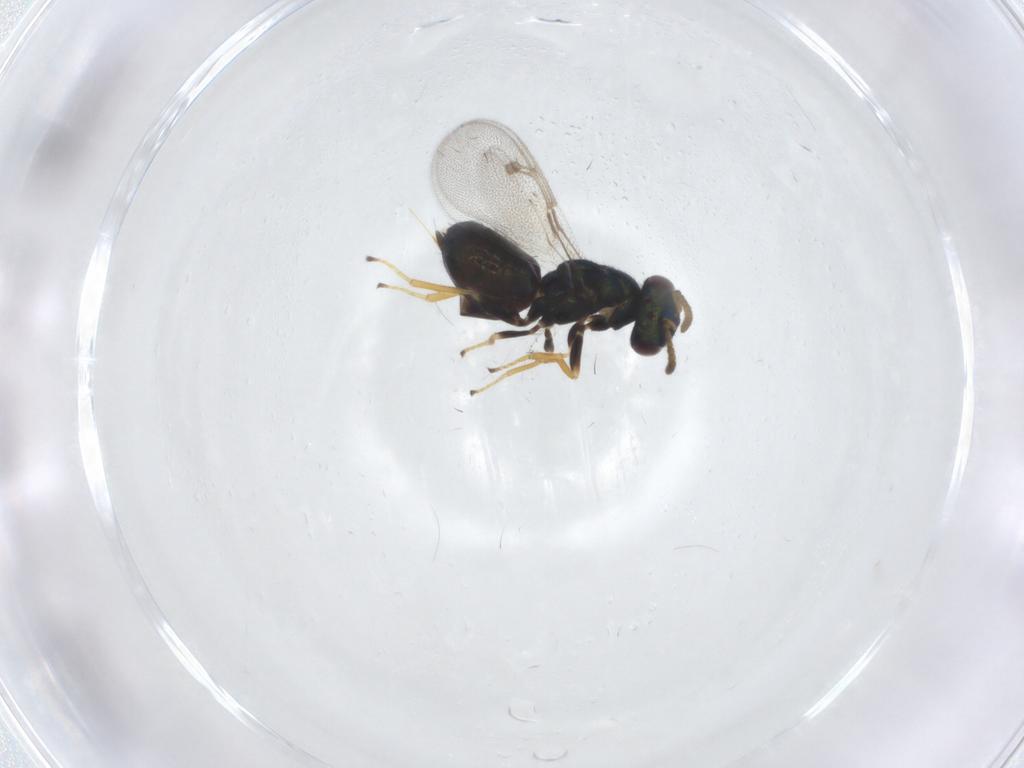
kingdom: Animalia
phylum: Arthropoda
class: Insecta
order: Hymenoptera
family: Pirenidae
